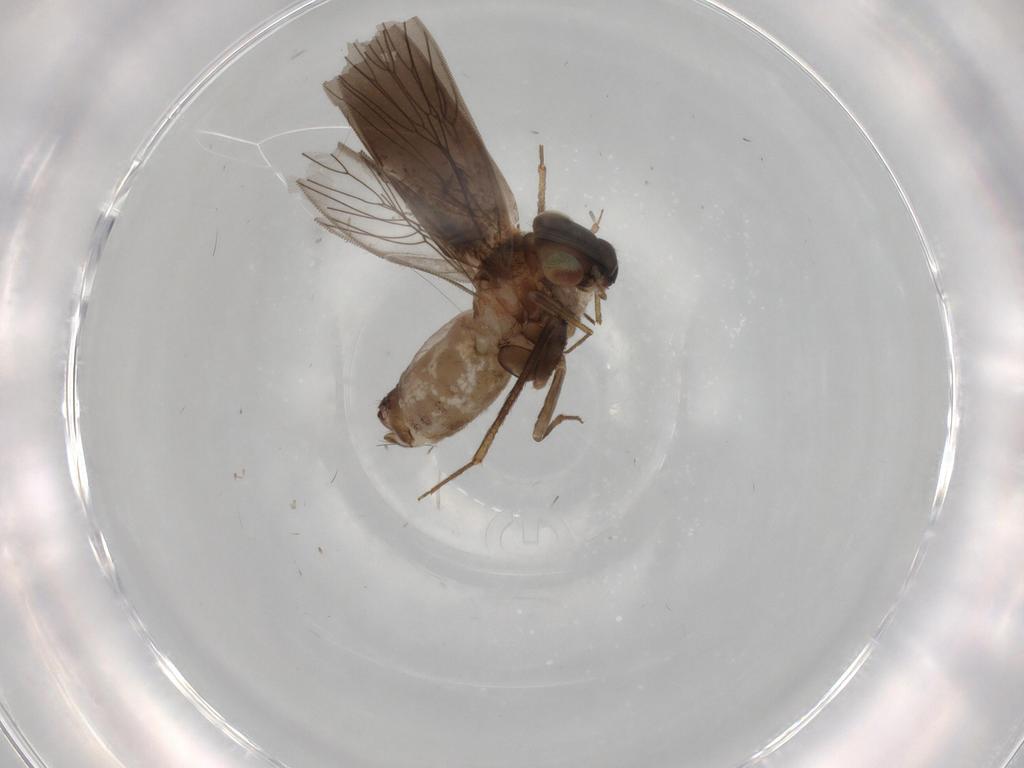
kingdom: Animalia
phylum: Arthropoda
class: Insecta
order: Psocodea
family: Lepidopsocidae
